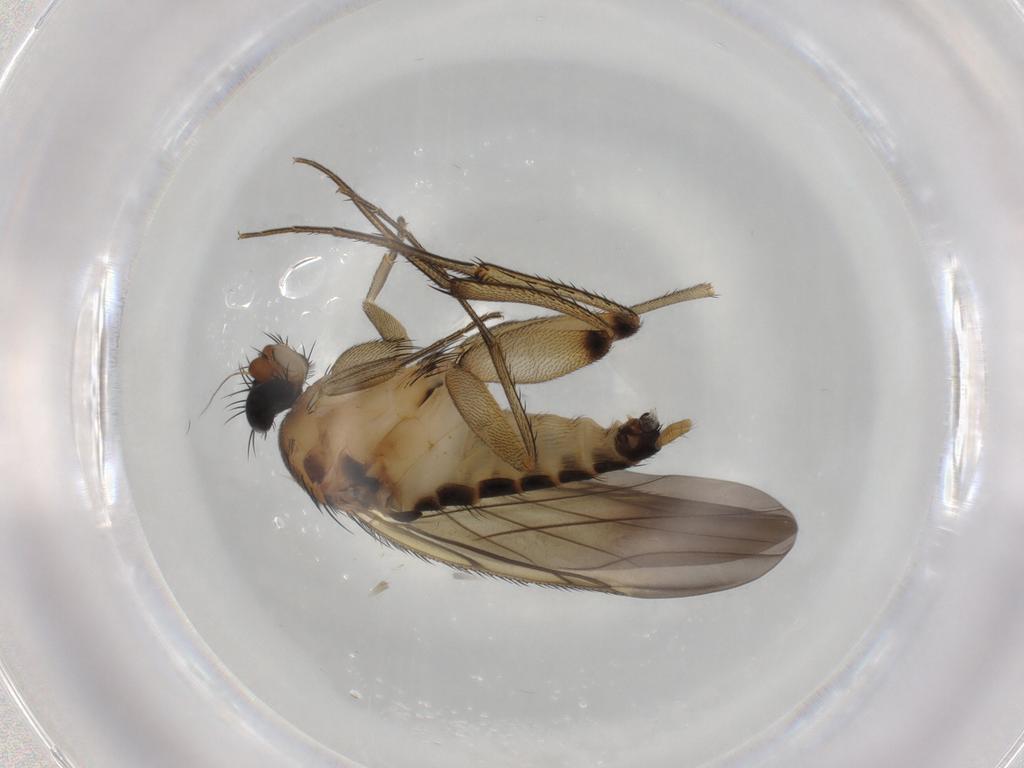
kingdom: Animalia
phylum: Arthropoda
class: Insecta
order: Diptera
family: Phoridae
